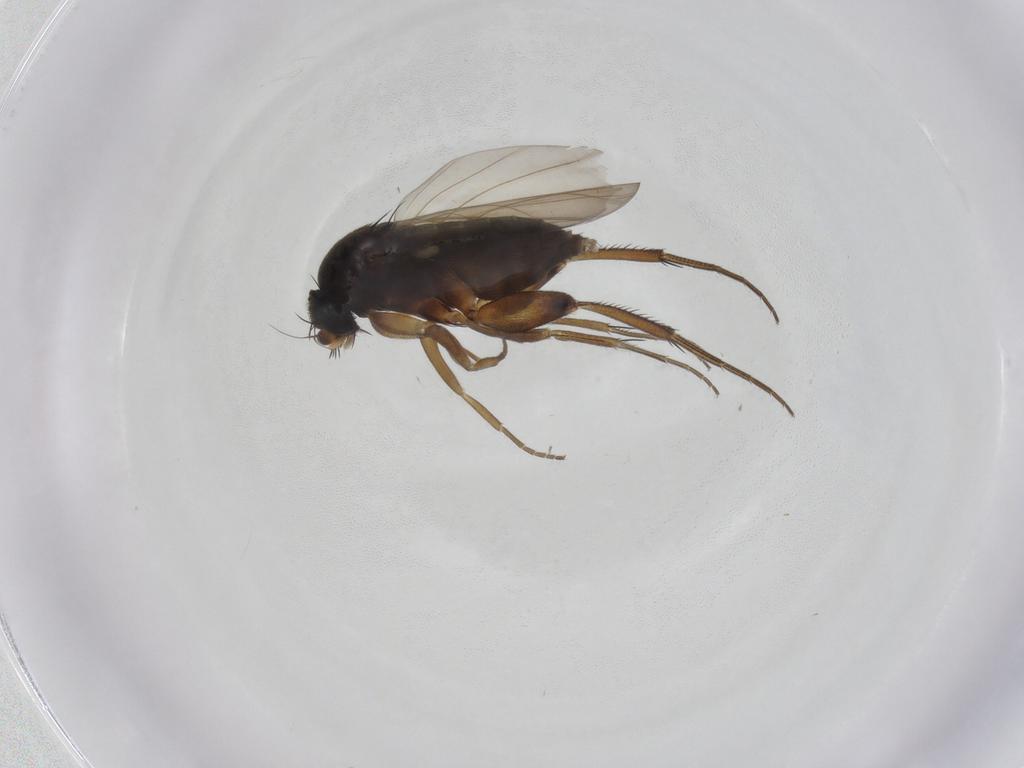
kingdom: Animalia
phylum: Arthropoda
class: Insecta
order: Diptera
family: Phoridae
